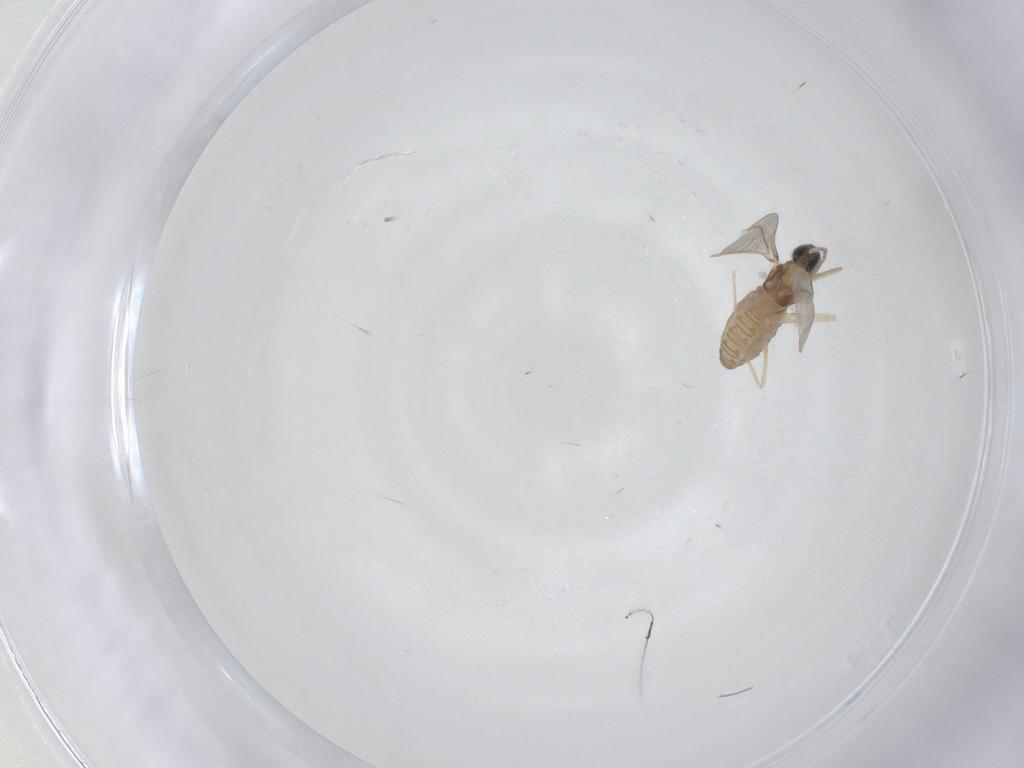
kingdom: Animalia
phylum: Arthropoda
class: Insecta
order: Diptera
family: Cecidomyiidae
